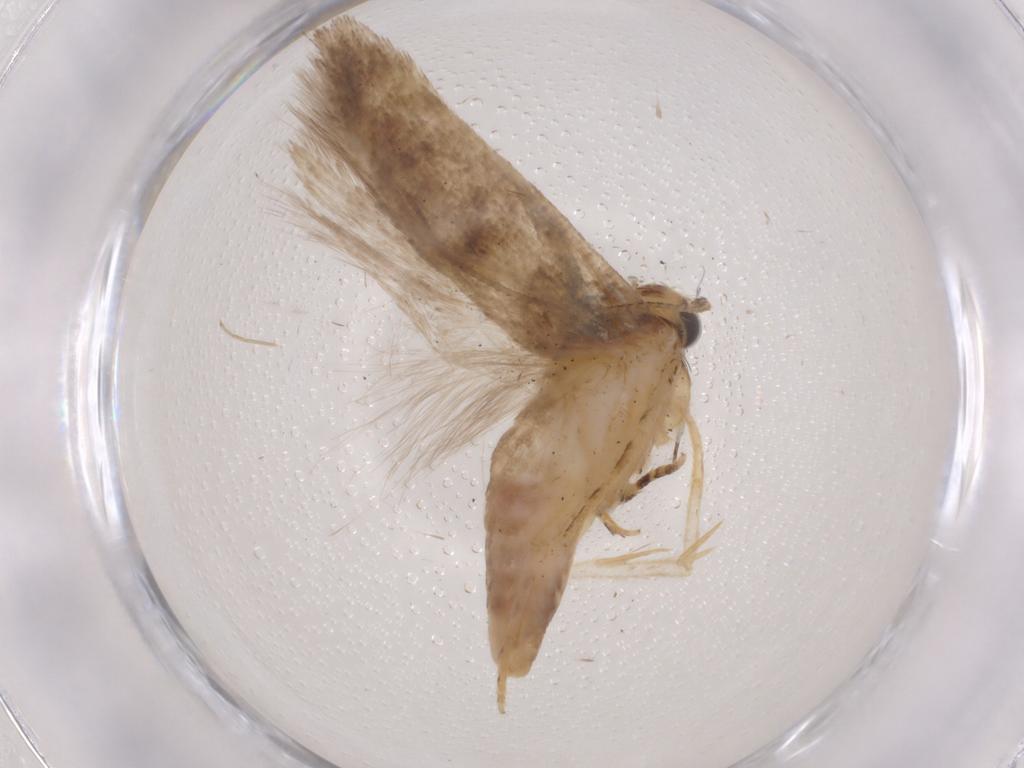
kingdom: Animalia
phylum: Arthropoda
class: Insecta
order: Lepidoptera
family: Gelechiidae
